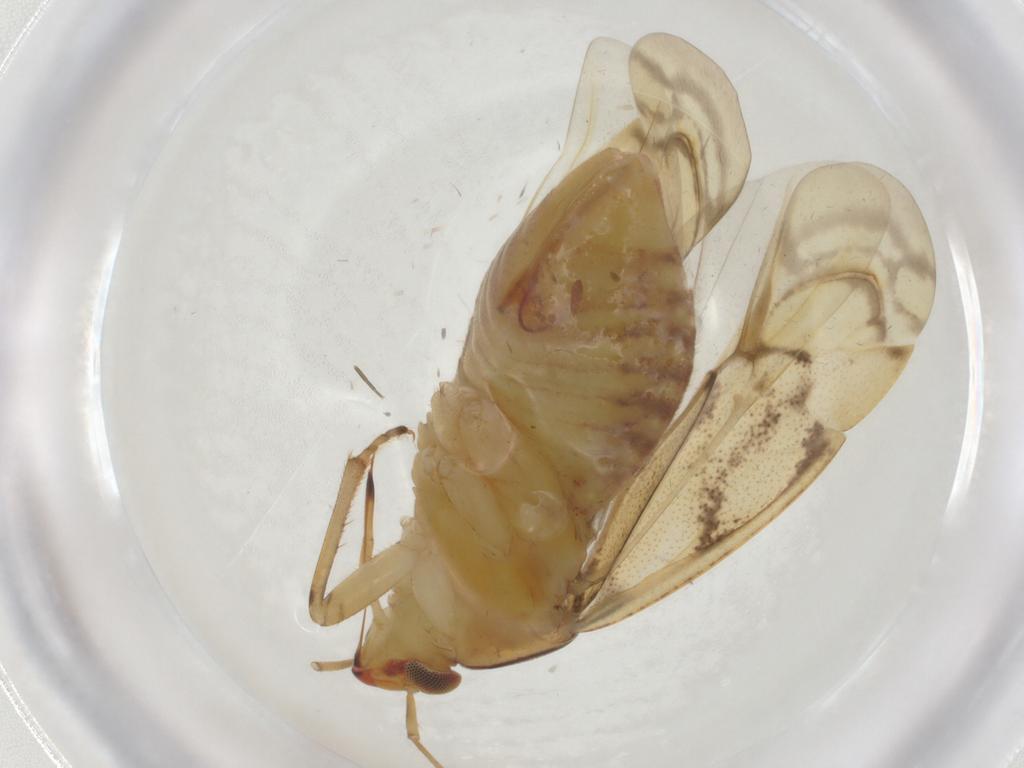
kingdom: Animalia
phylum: Arthropoda
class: Insecta
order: Hemiptera
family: Miridae
